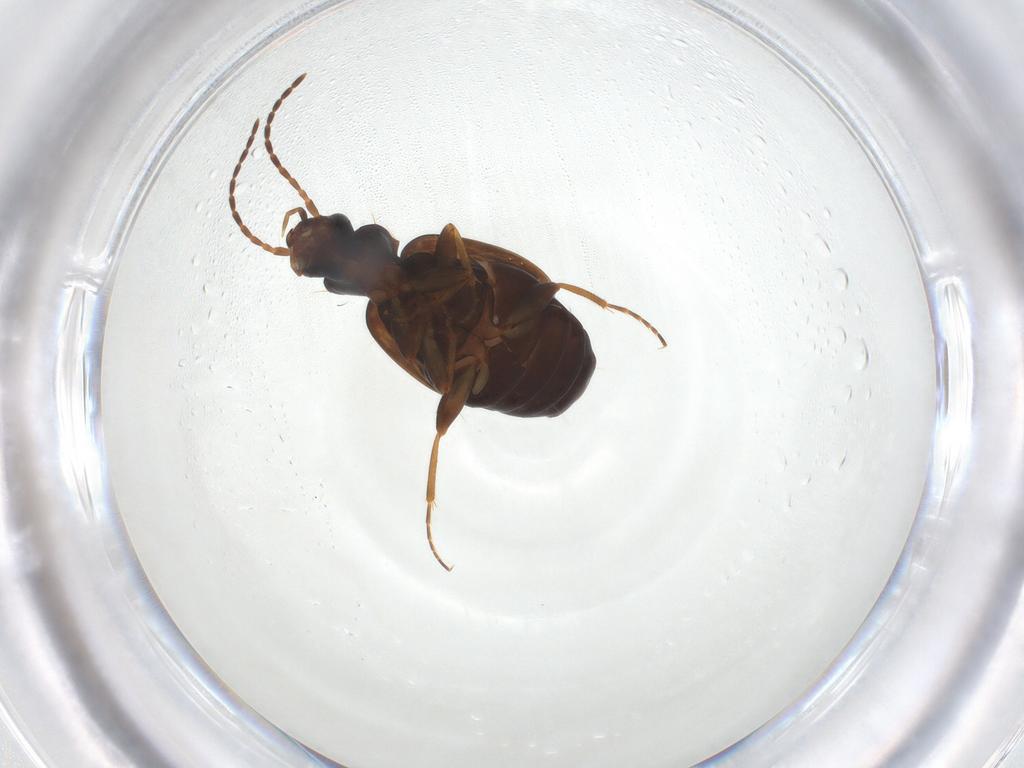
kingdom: Animalia
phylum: Arthropoda
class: Insecta
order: Coleoptera
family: Carabidae
